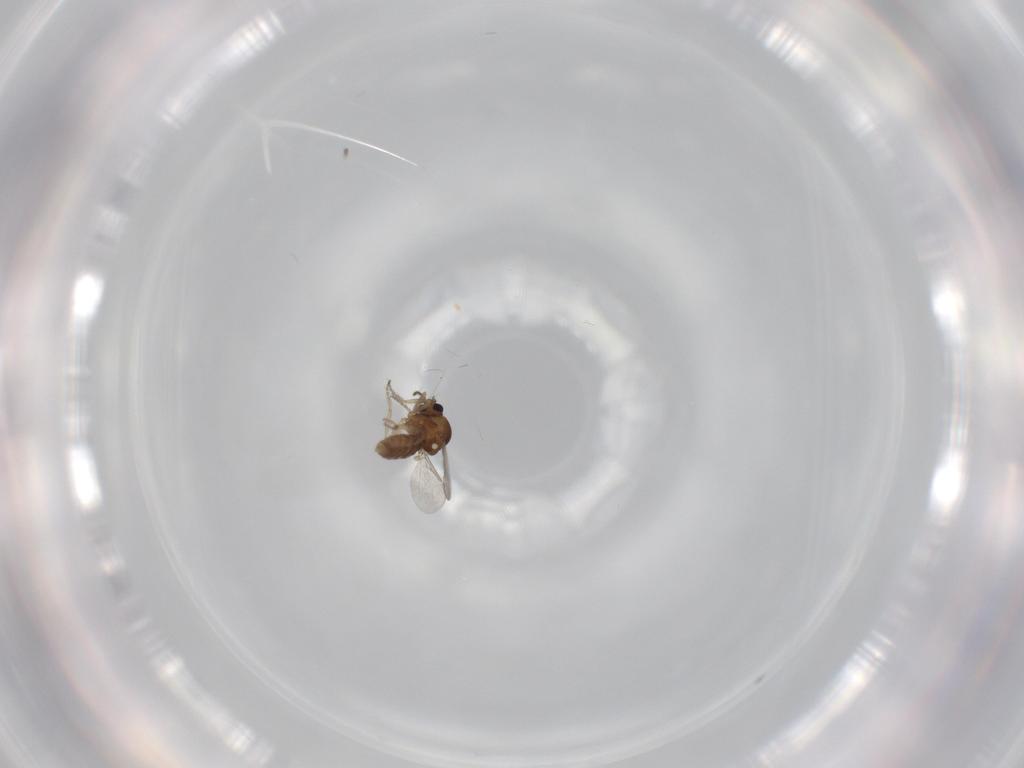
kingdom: Animalia
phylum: Arthropoda
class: Insecta
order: Diptera
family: Ceratopogonidae
